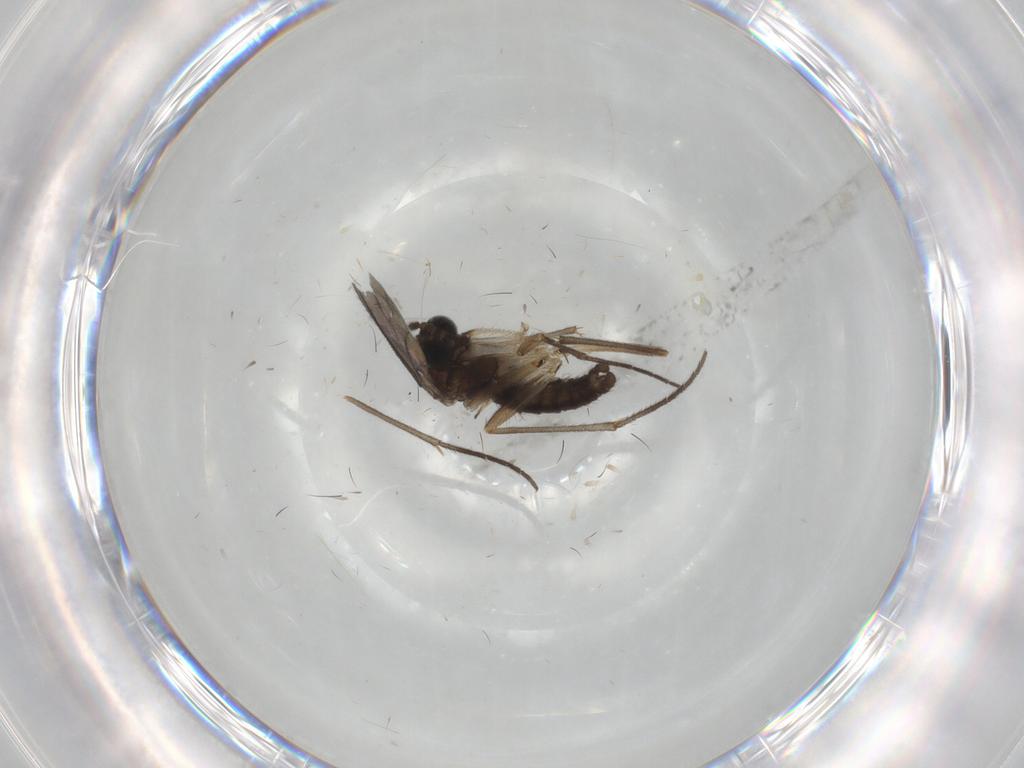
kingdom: Animalia
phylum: Arthropoda
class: Insecta
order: Diptera
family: Sciaridae
